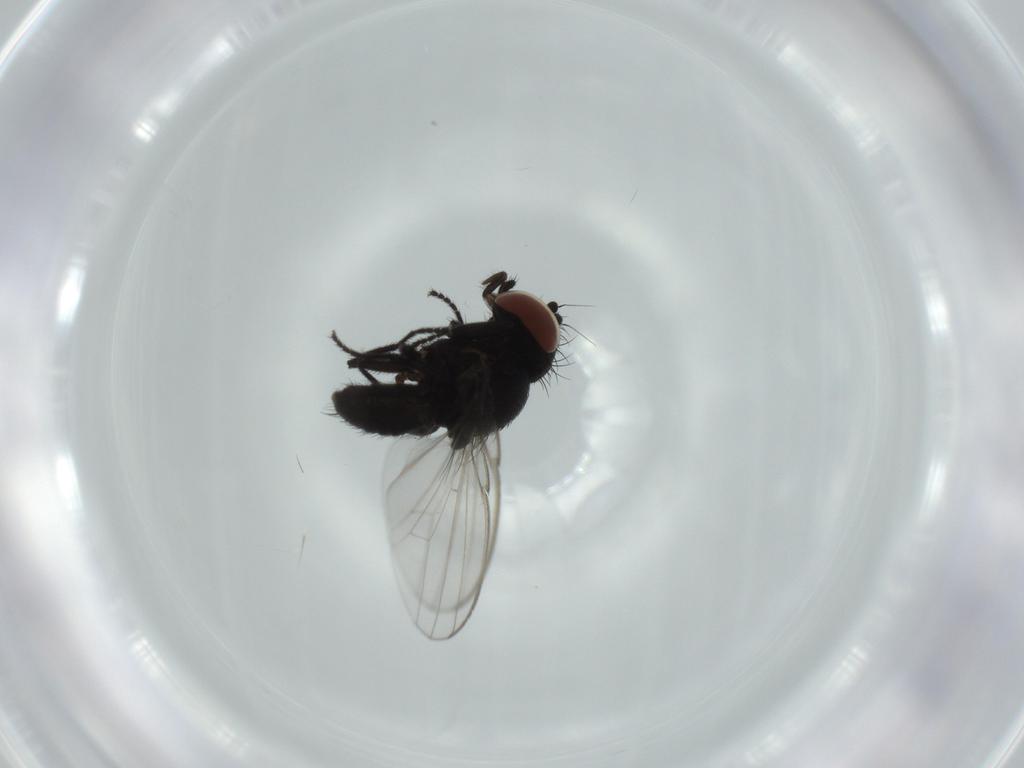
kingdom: Animalia
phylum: Arthropoda
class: Insecta
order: Diptera
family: Milichiidae
